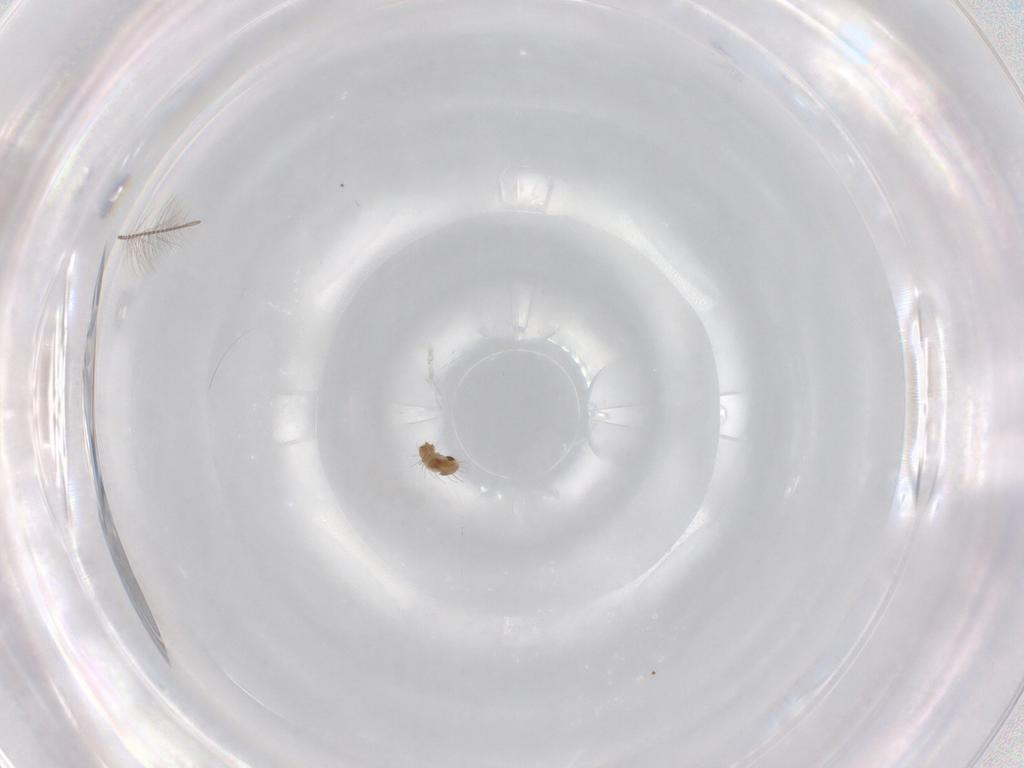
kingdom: Animalia
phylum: Arthropoda
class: Arachnida
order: Sarcoptiformes
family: Humerobatidae
